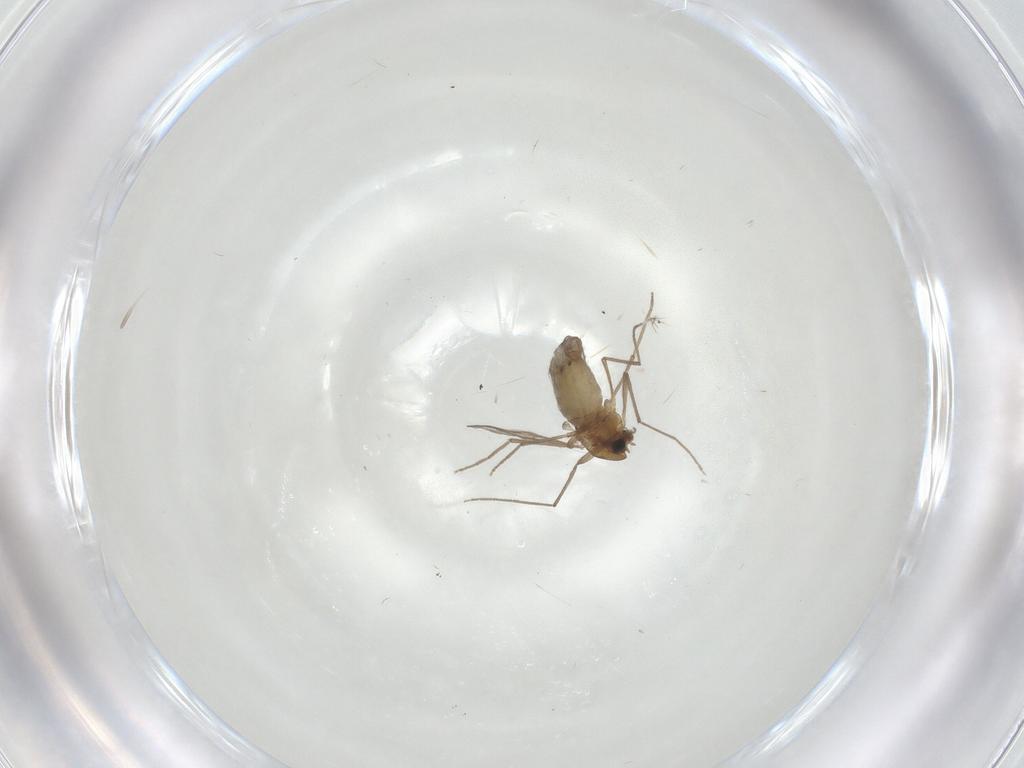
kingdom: Animalia
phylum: Arthropoda
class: Insecta
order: Diptera
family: Chironomidae
